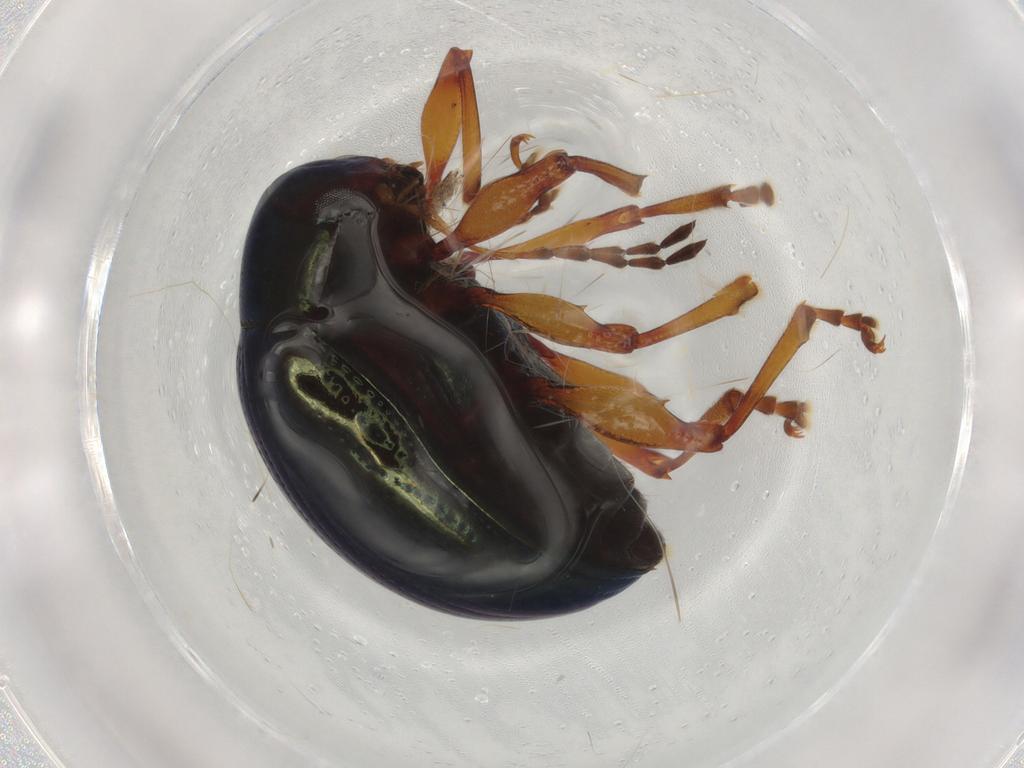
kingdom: Animalia
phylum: Arthropoda
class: Insecta
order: Coleoptera
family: Chrysomelidae
